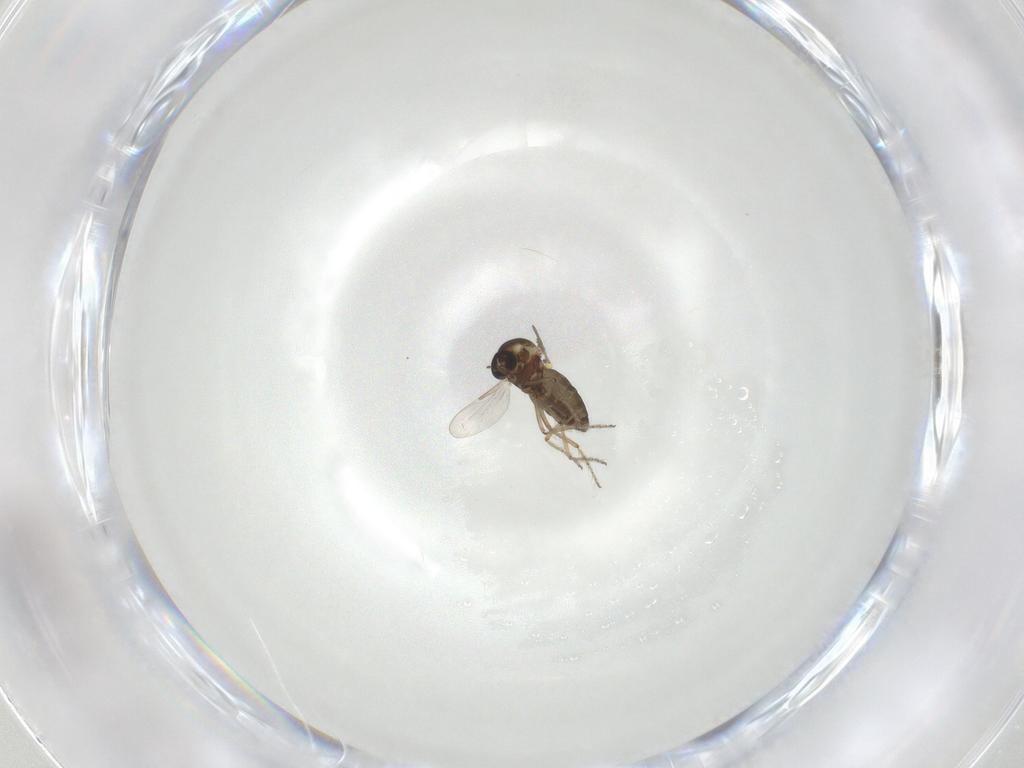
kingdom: Animalia
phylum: Arthropoda
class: Insecta
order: Diptera
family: Ceratopogonidae
